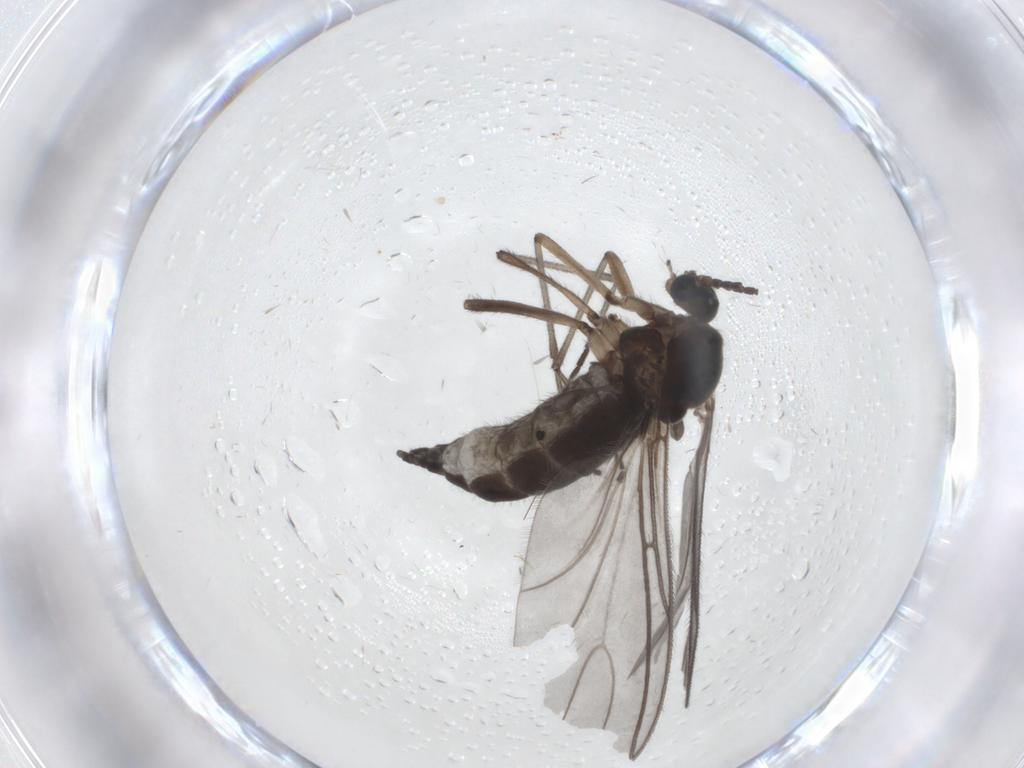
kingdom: Animalia
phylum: Arthropoda
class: Insecta
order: Diptera
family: Sciaridae
